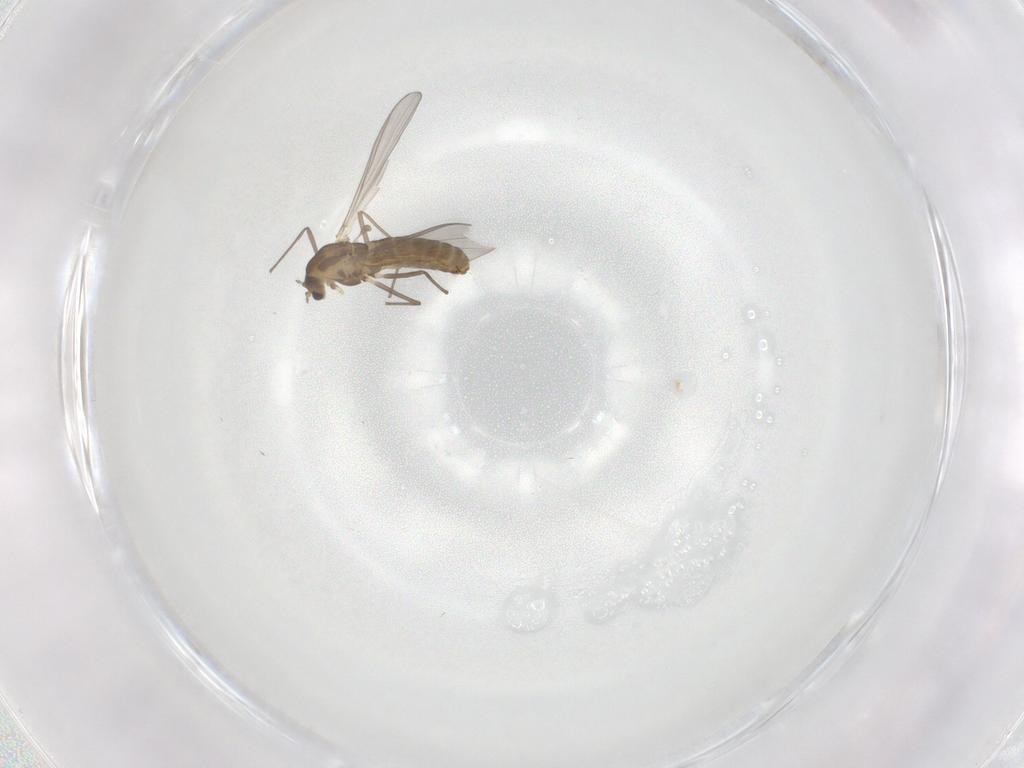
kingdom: Animalia
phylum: Arthropoda
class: Insecta
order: Diptera
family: Chironomidae
